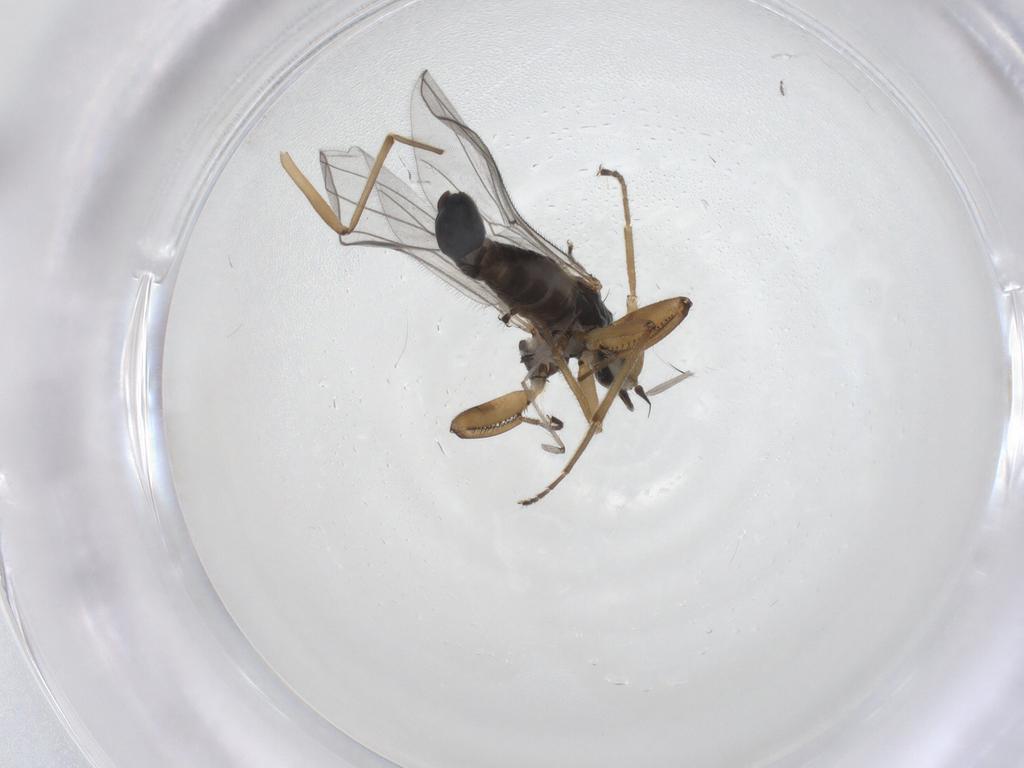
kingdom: Animalia
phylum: Arthropoda
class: Insecta
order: Diptera
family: Hybotidae
